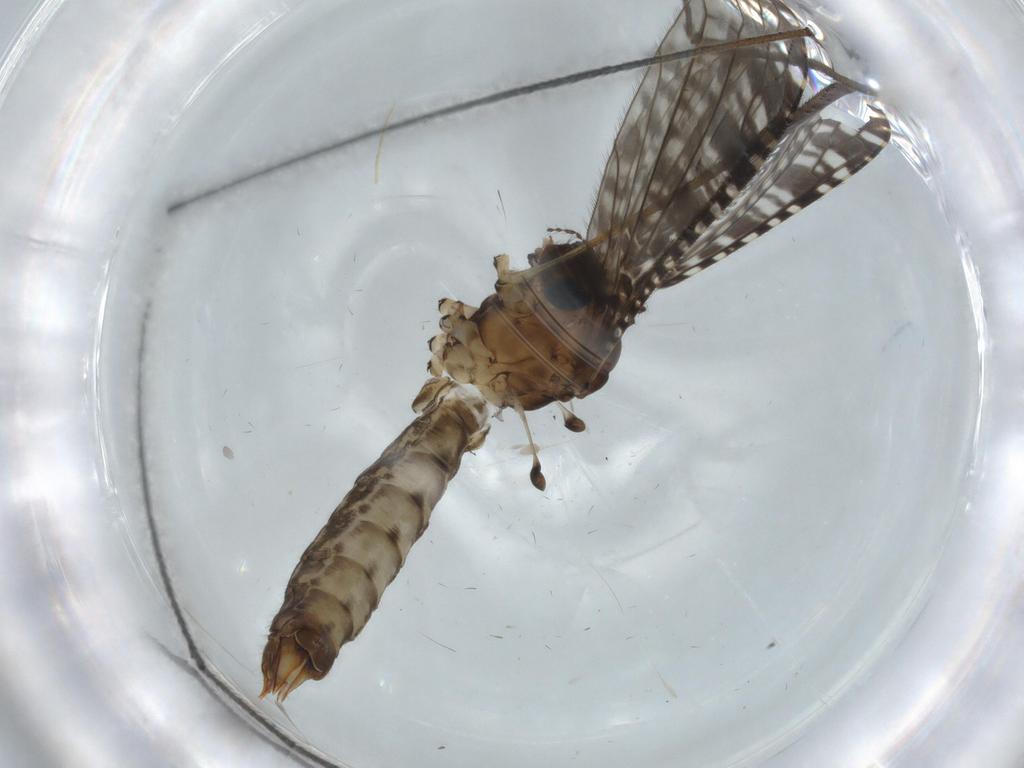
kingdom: Animalia
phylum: Arthropoda
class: Insecta
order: Diptera
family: Limoniidae
